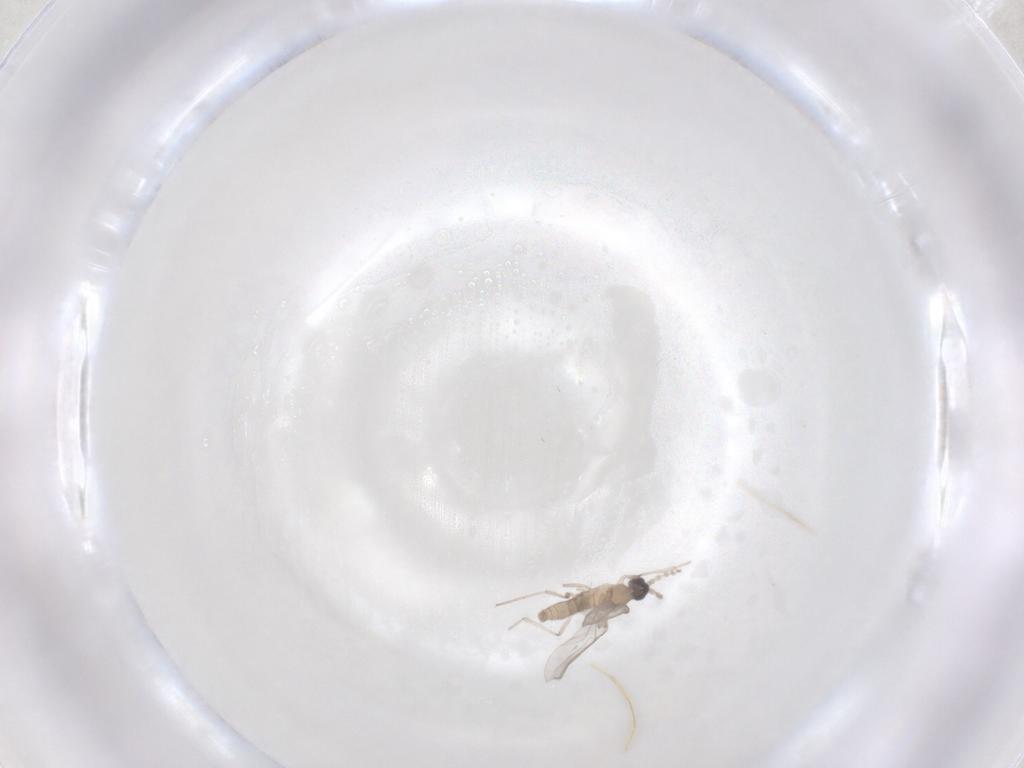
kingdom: Animalia
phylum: Arthropoda
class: Insecta
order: Diptera
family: Cecidomyiidae
